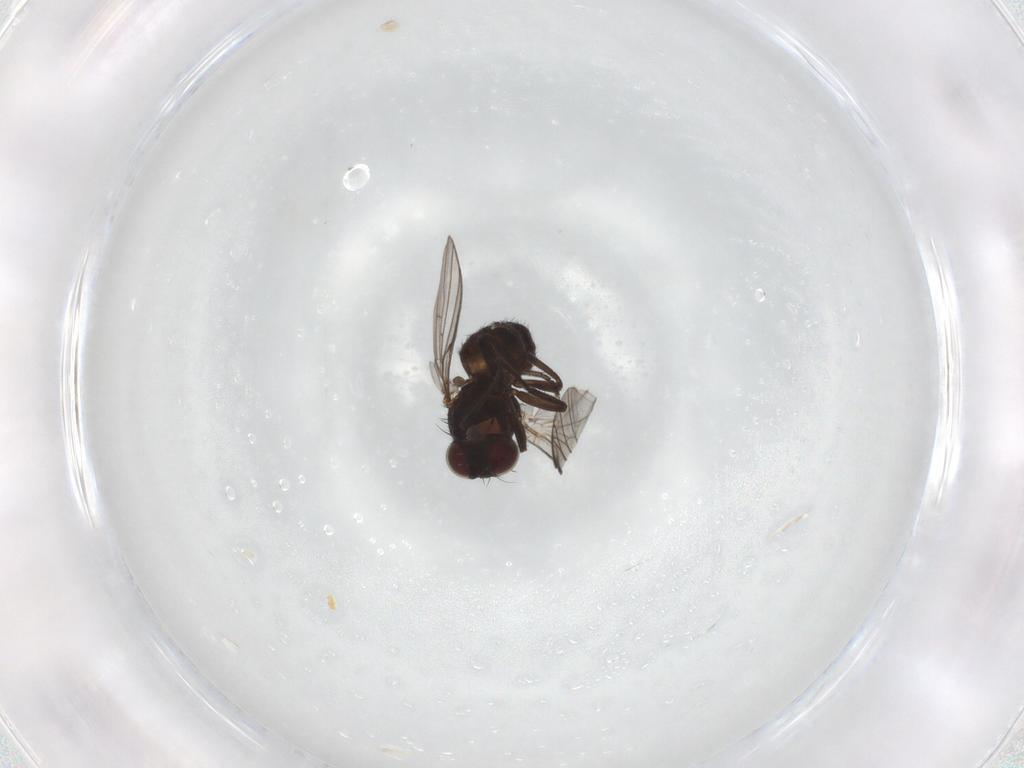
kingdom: Animalia
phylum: Arthropoda
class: Insecta
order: Diptera
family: Agromyzidae
